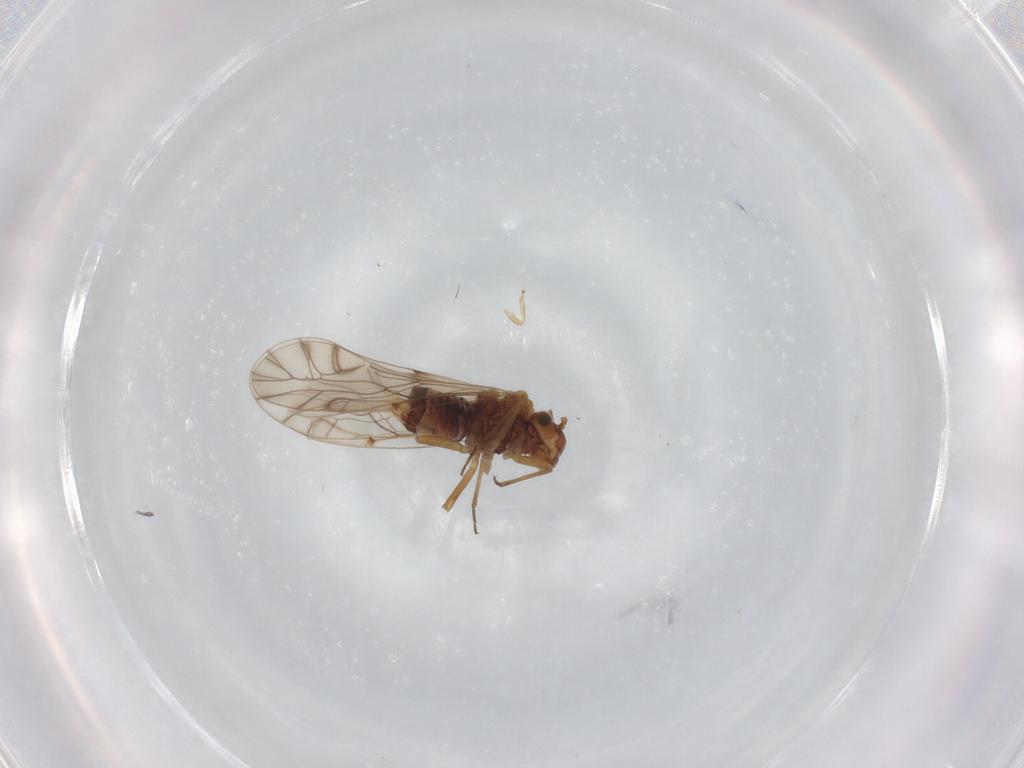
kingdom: Animalia
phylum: Arthropoda
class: Insecta
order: Psocodea
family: Lachesillidae
